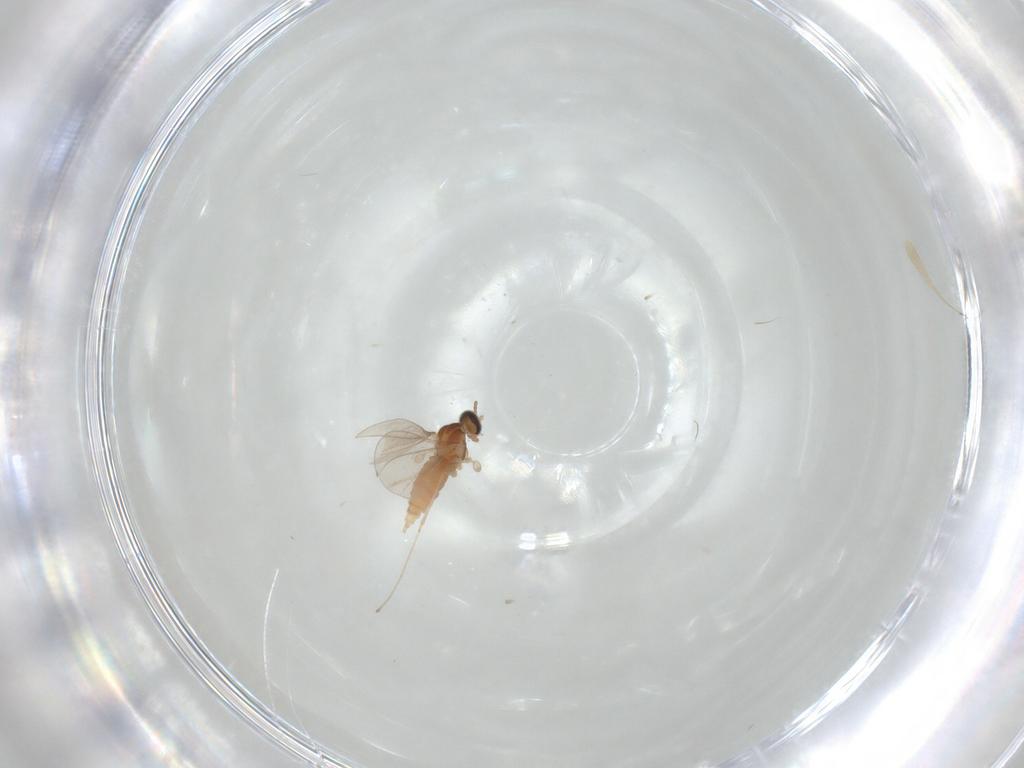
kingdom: Animalia
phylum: Arthropoda
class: Insecta
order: Diptera
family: Cecidomyiidae
